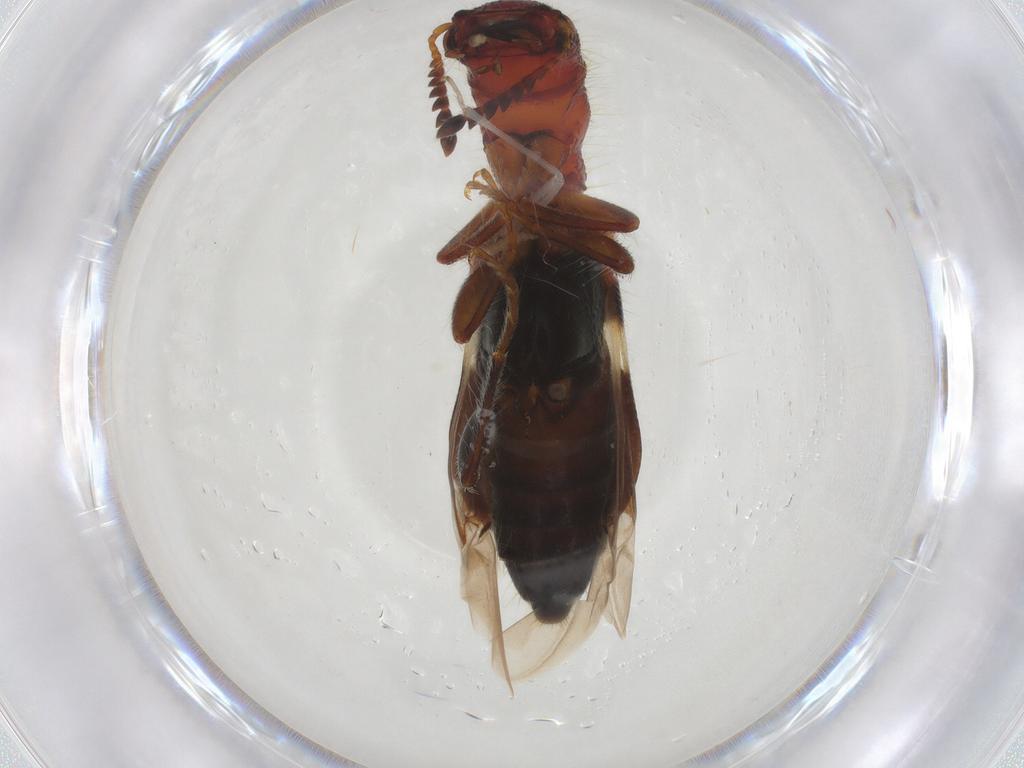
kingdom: Animalia
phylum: Arthropoda
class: Insecta
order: Coleoptera
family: Cleridae
